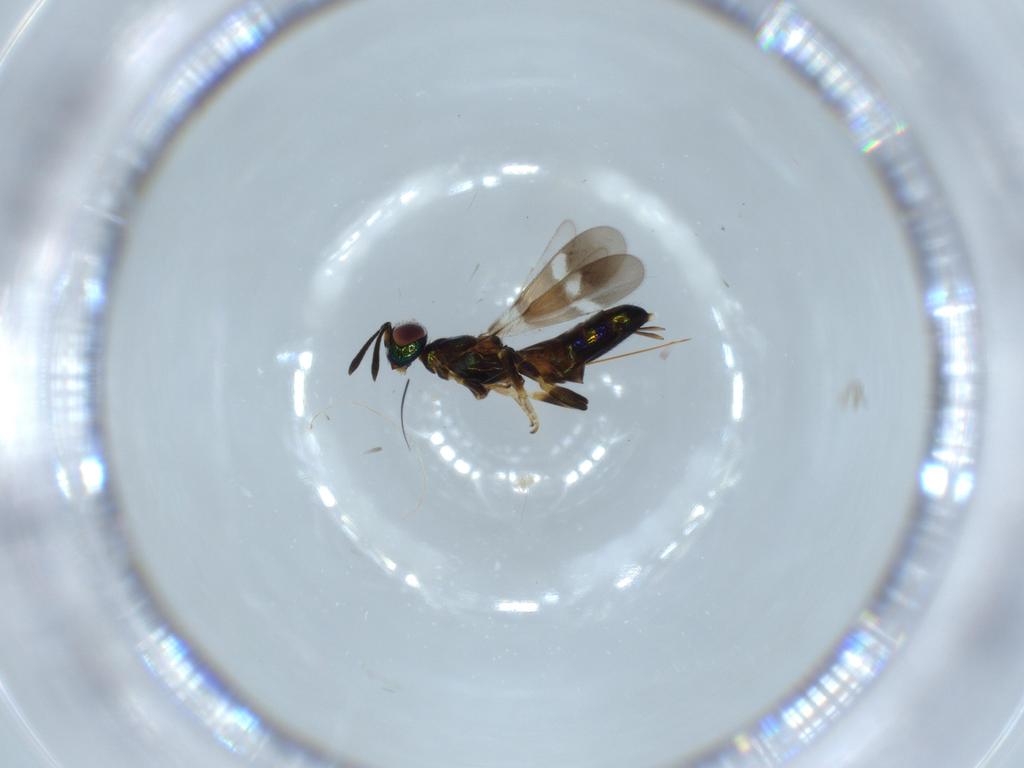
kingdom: Animalia
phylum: Arthropoda
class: Insecta
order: Hymenoptera
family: Eupelmidae
